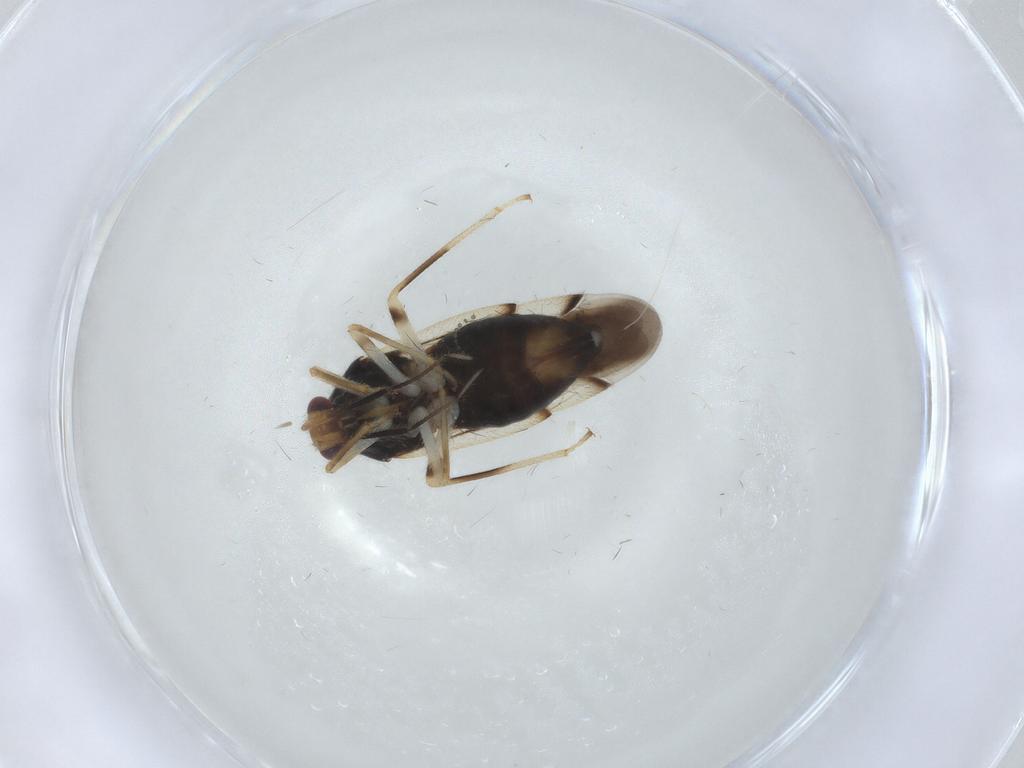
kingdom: Animalia
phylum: Arthropoda
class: Insecta
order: Hemiptera
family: Miridae
